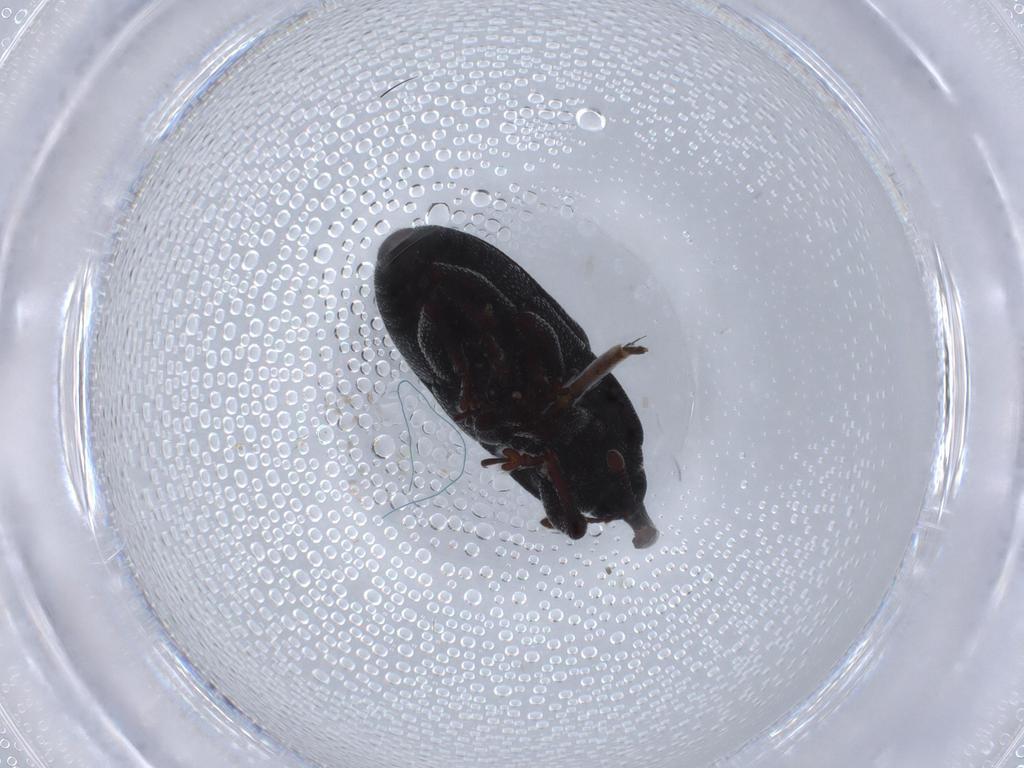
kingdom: Animalia
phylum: Arthropoda
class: Insecta
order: Coleoptera
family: Curculionidae
